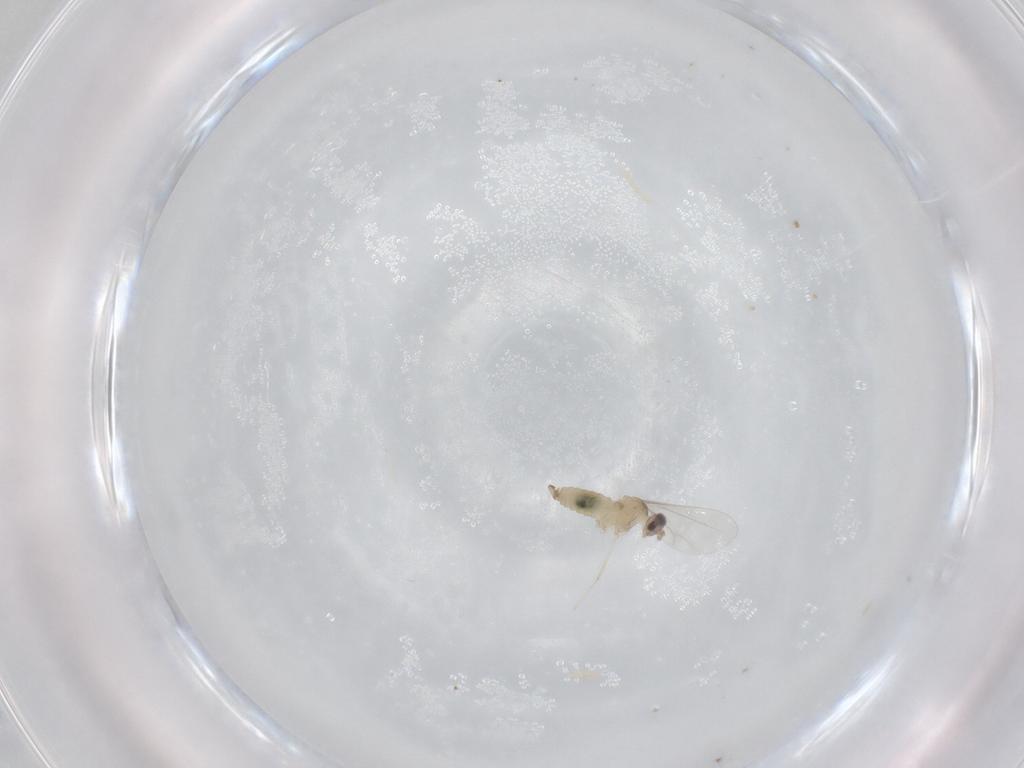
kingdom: Animalia
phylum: Arthropoda
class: Insecta
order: Diptera
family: Cecidomyiidae
